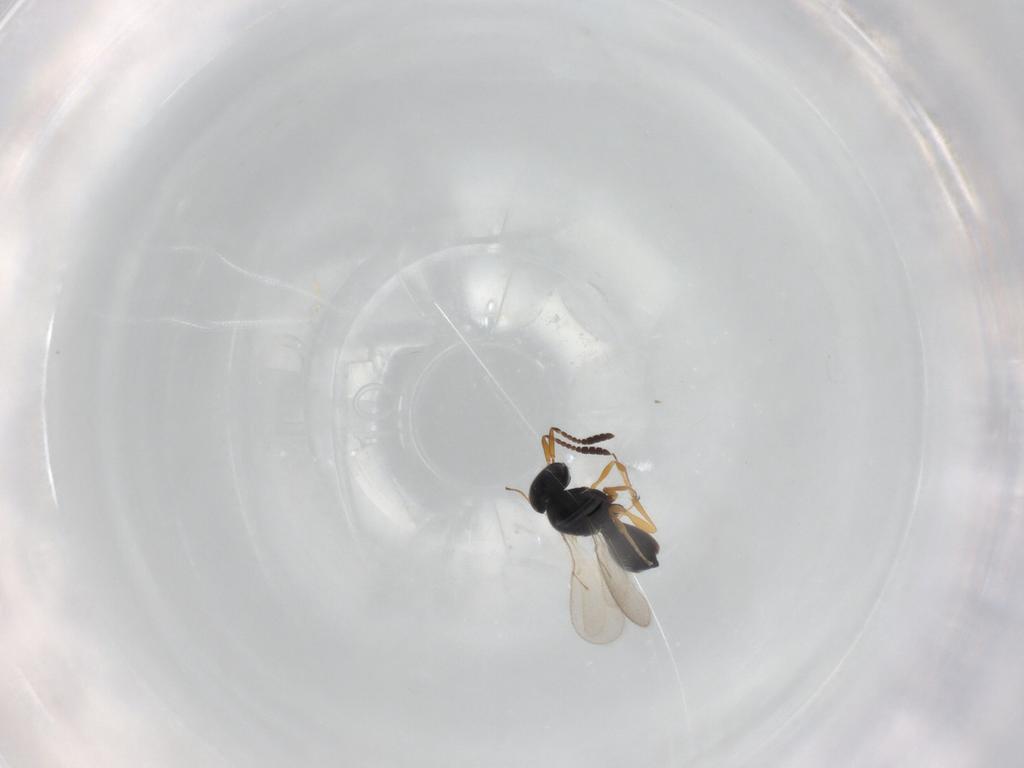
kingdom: Animalia
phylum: Arthropoda
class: Insecta
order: Hymenoptera
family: Scelionidae
